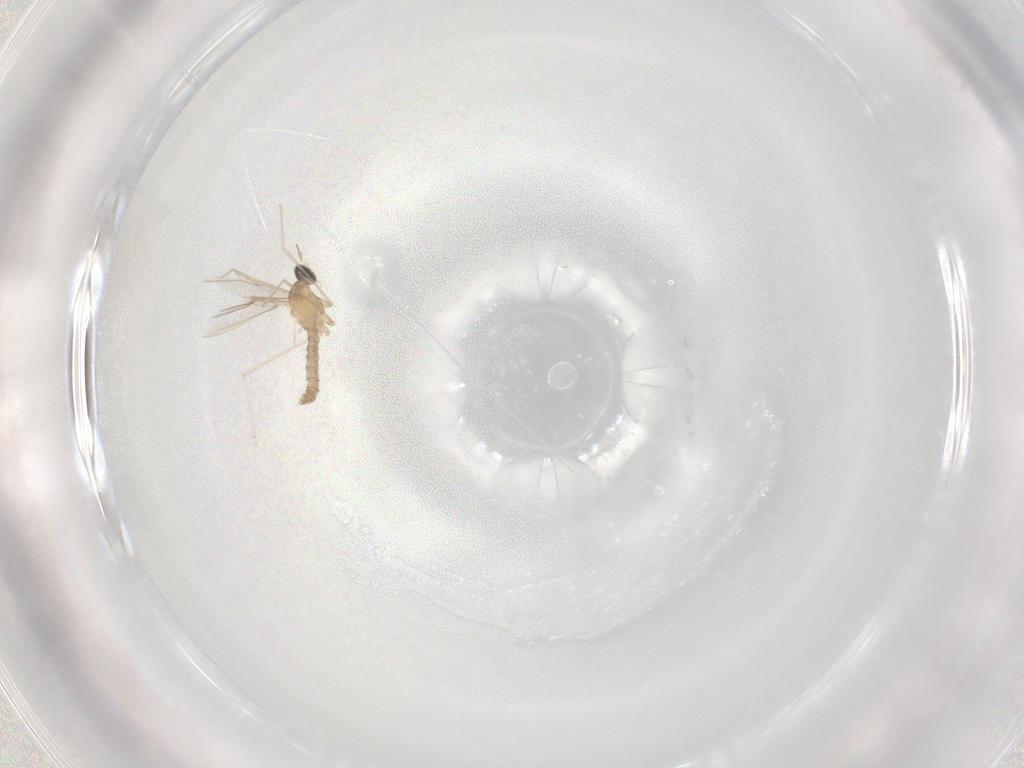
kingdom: Animalia
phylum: Arthropoda
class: Insecta
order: Diptera
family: Cecidomyiidae
